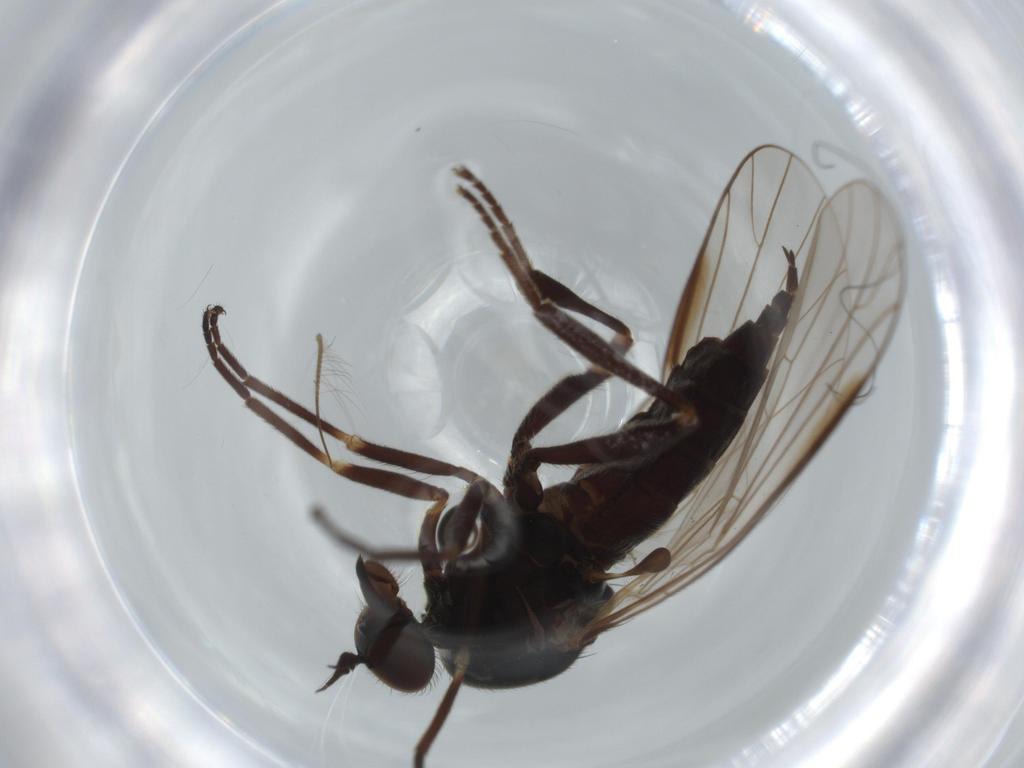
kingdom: Animalia
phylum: Arthropoda
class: Insecta
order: Diptera
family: Empididae
